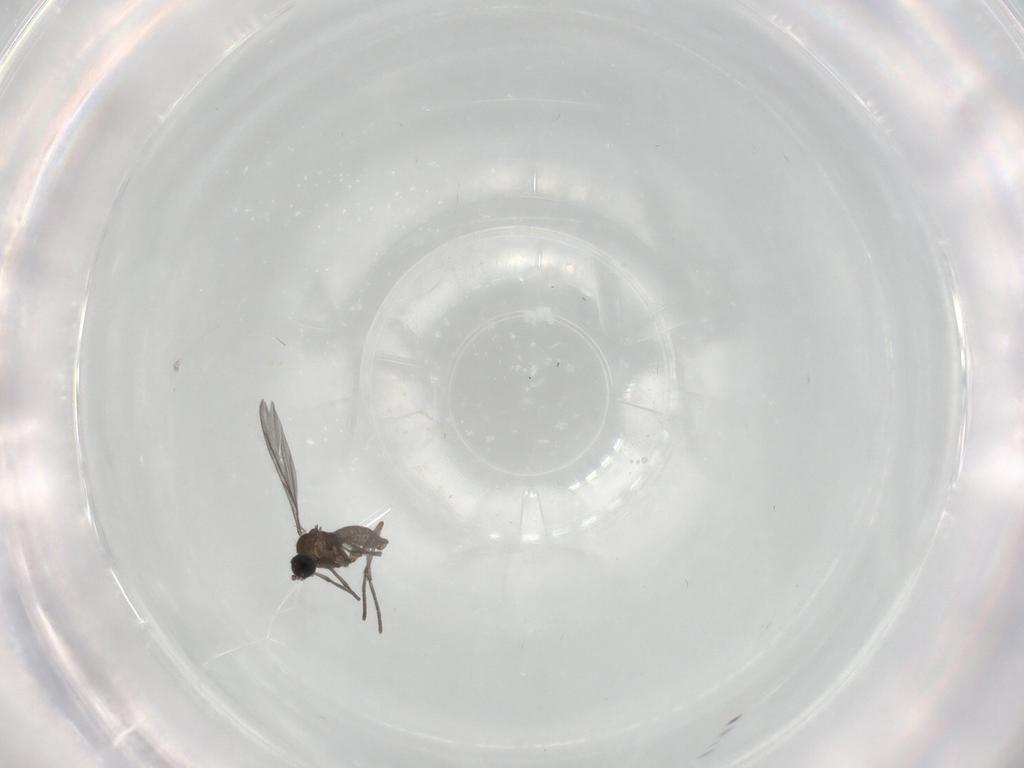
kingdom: Animalia
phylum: Arthropoda
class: Insecta
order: Diptera
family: Sciaridae
